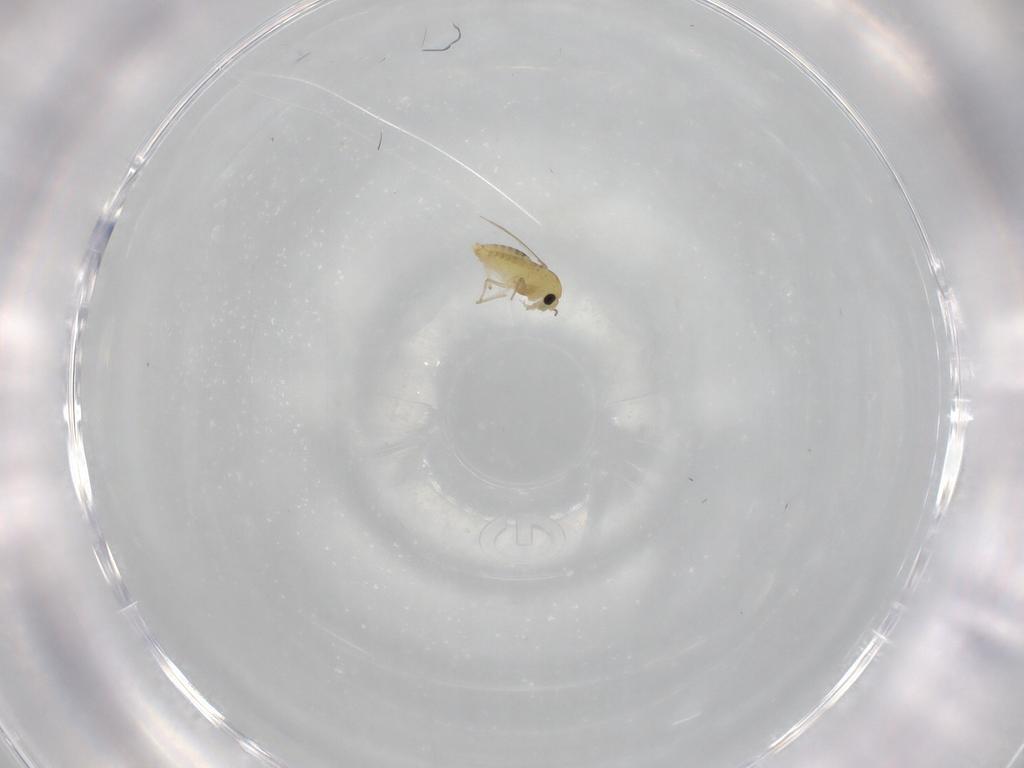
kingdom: Animalia
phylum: Arthropoda
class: Insecta
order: Diptera
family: Chironomidae
